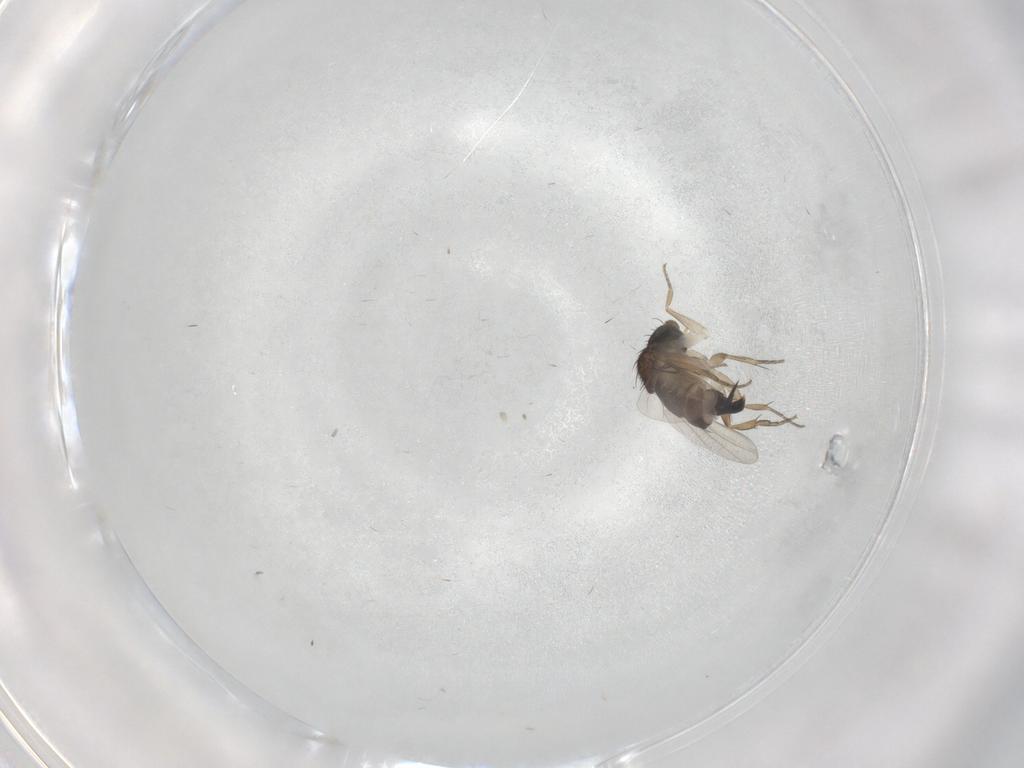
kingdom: Animalia
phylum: Arthropoda
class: Insecta
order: Diptera
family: Phoridae
